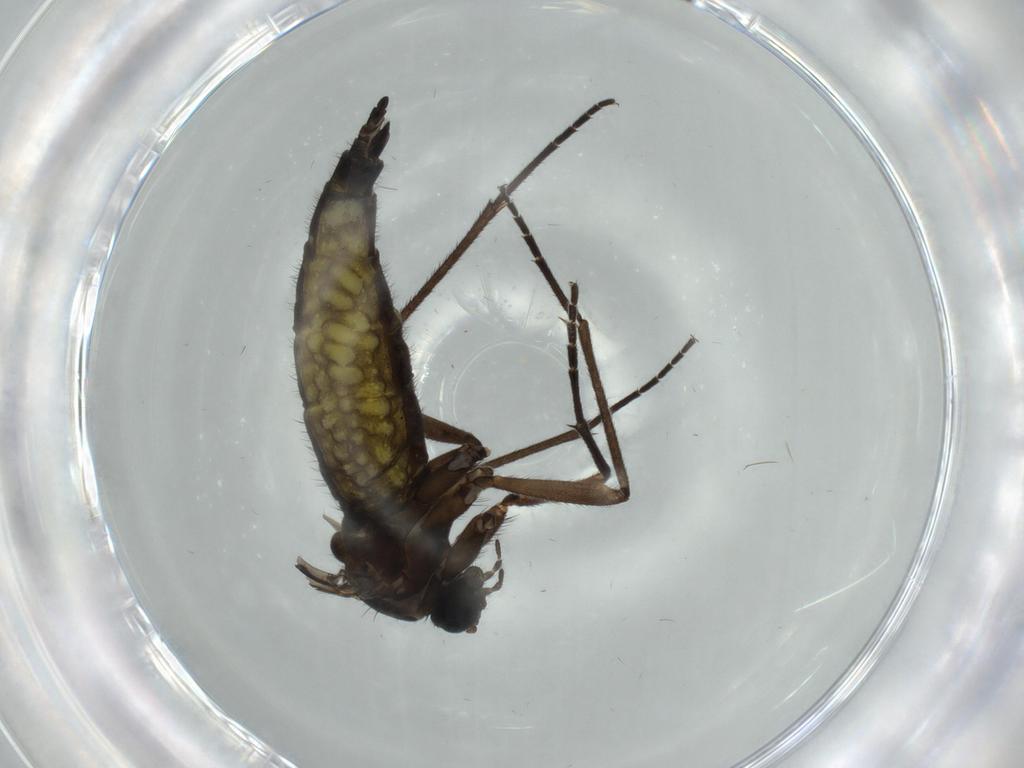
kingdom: Animalia
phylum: Arthropoda
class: Insecta
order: Diptera
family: Sciaridae
